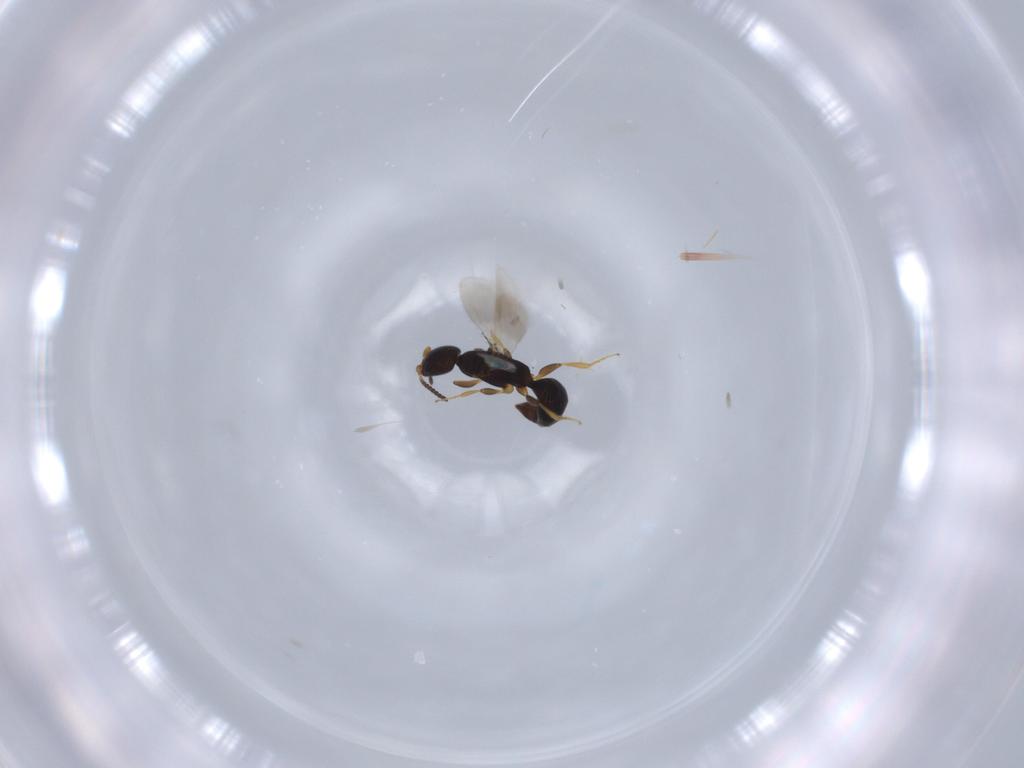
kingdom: Animalia
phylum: Arthropoda
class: Insecta
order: Hymenoptera
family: Bethylidae
